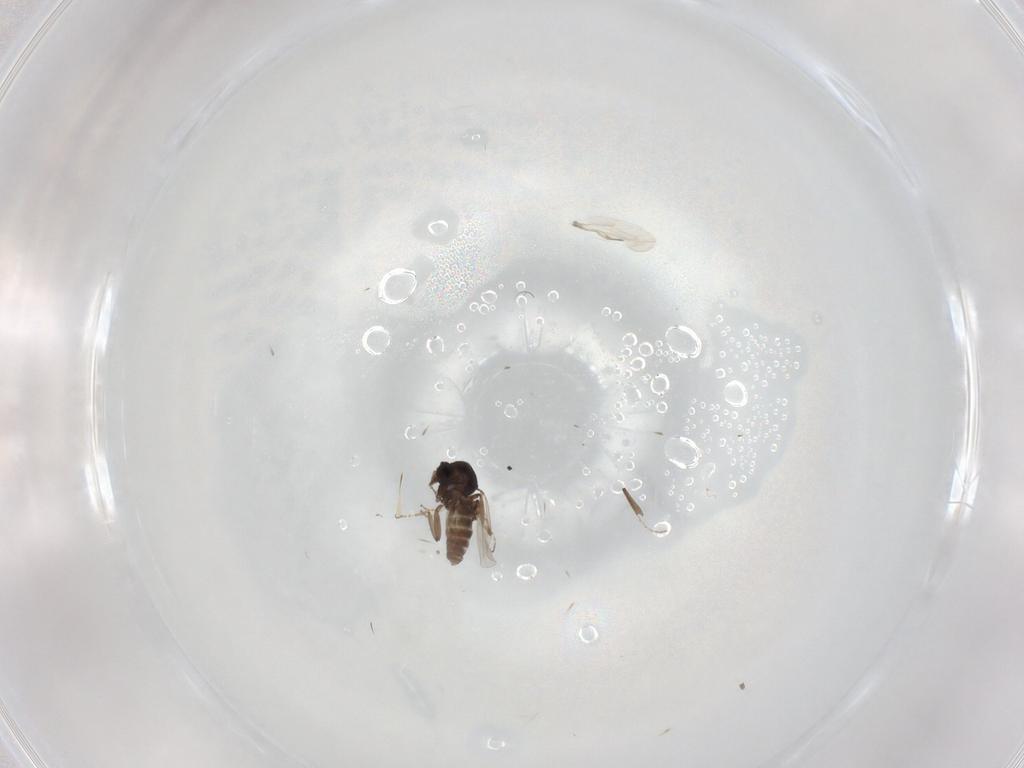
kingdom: Animalia
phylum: Arthropoda
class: Insecta
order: Diptera
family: Ceratopogonidae
